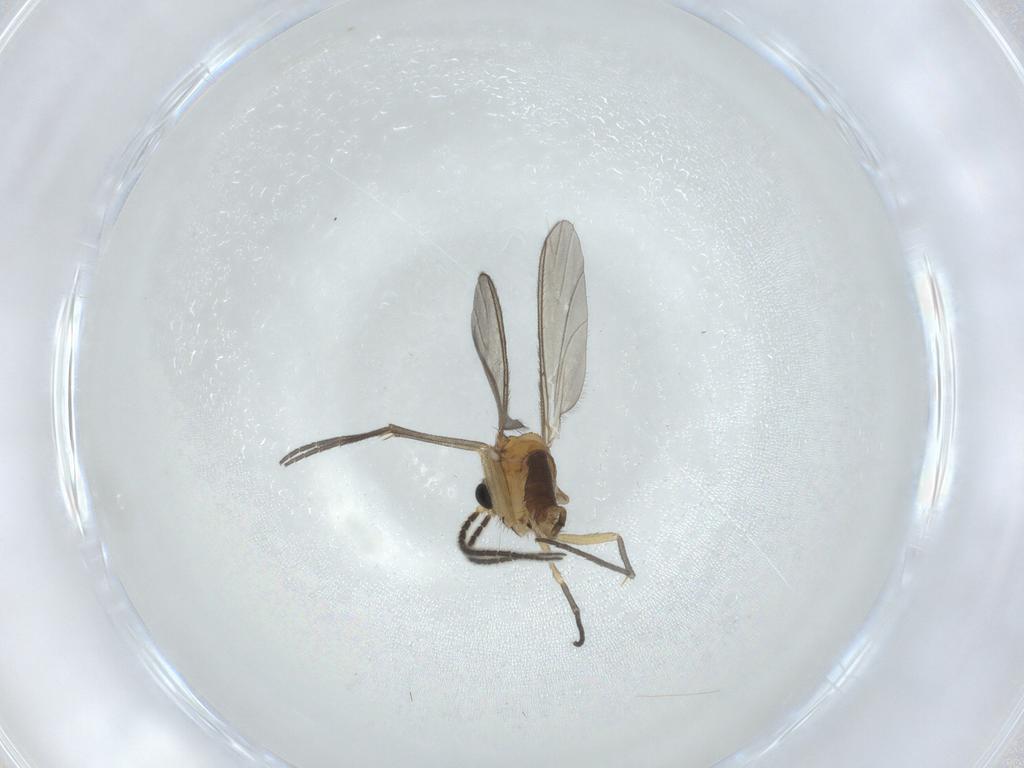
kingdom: Animalia
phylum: Arthropoda
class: Insecta
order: Diptera
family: Sciaridae
